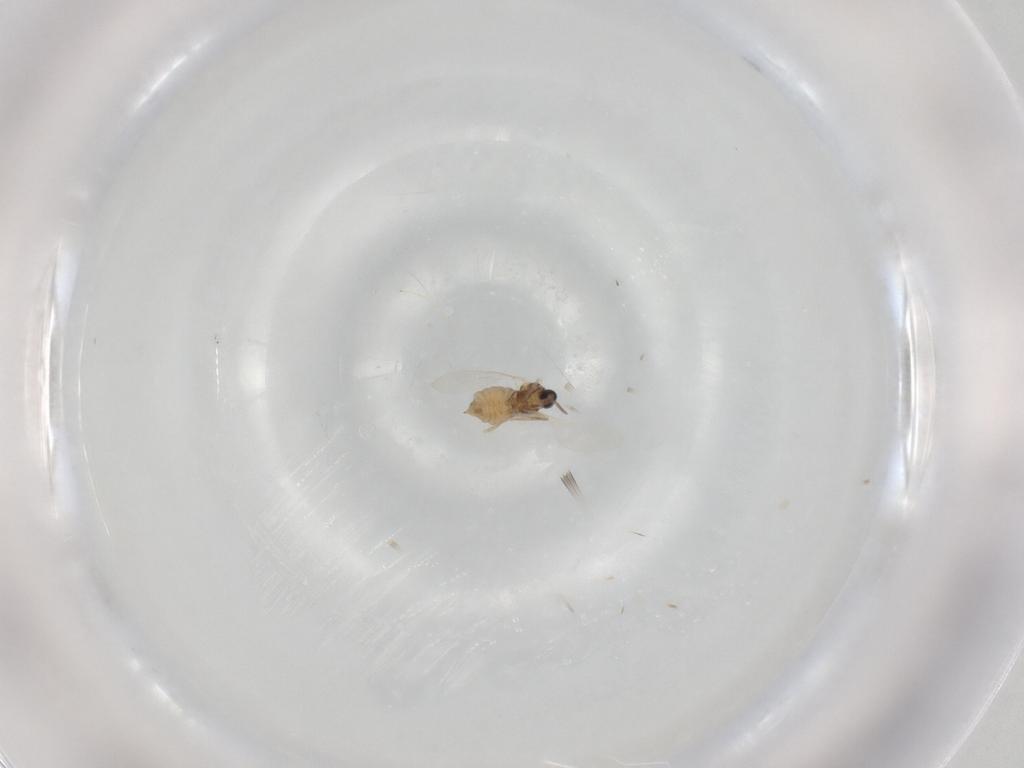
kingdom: Animalia
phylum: Arthropoda
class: Insecta
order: Diptera
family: Cecidomyiidae
